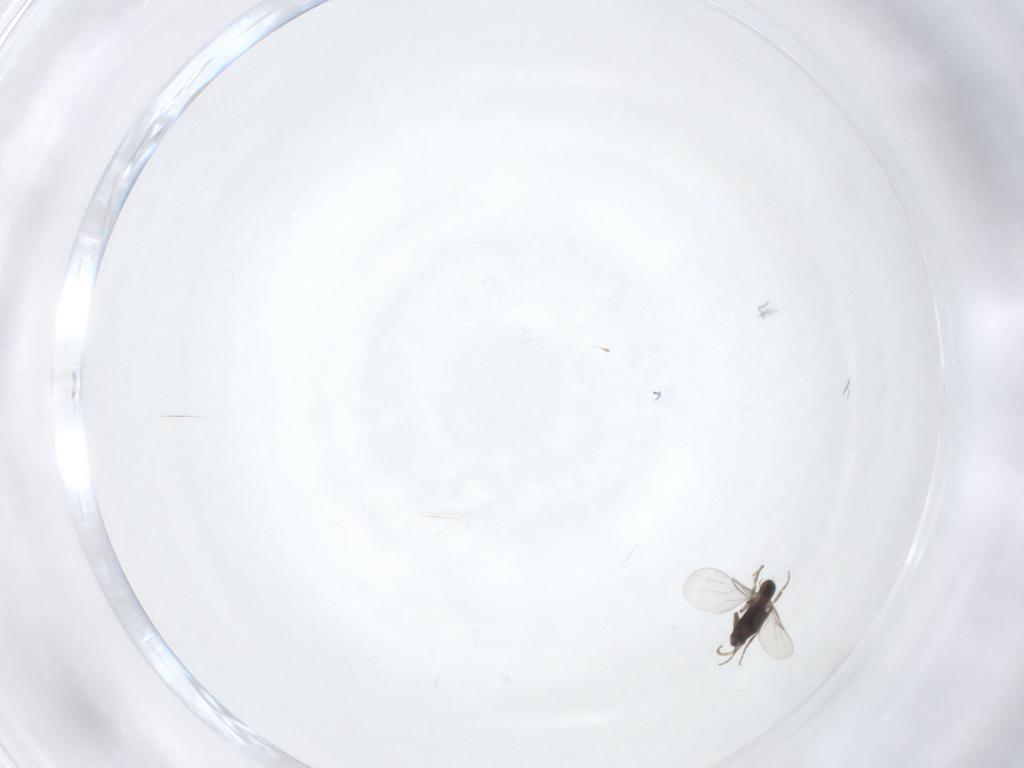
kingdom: Animalia
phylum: Arthropoda
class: Insecta
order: Diptera
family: Phoridae
